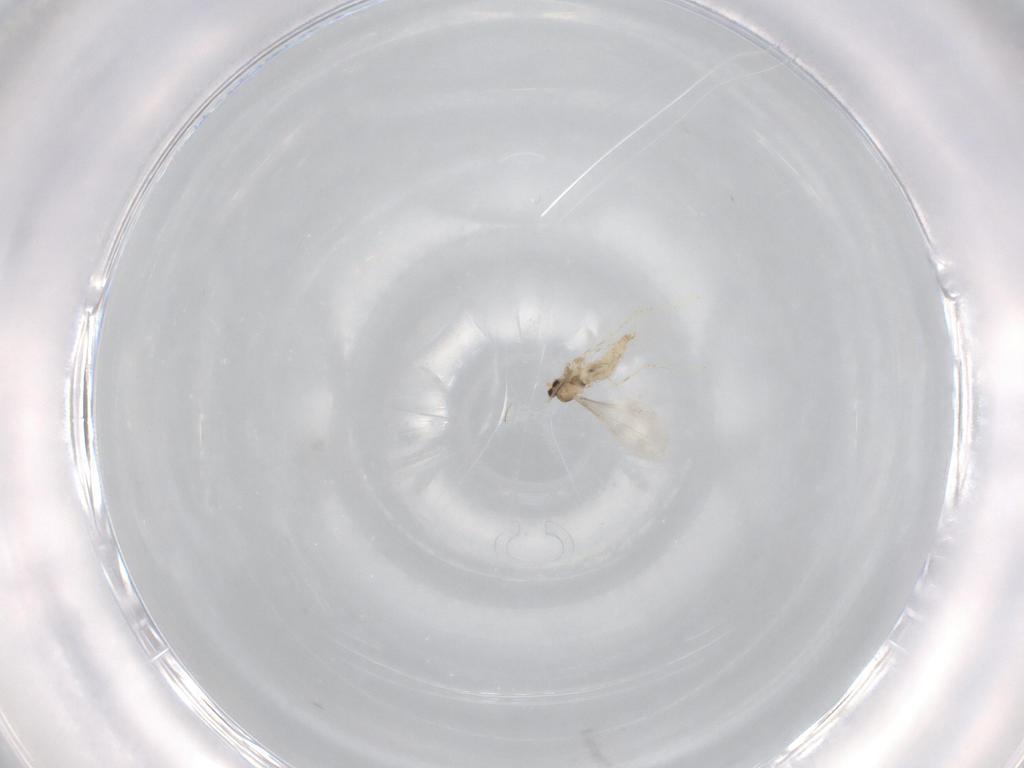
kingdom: Animalia
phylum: Arthropoda
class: Insecta
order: Diptera
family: Cecidomyiidae
